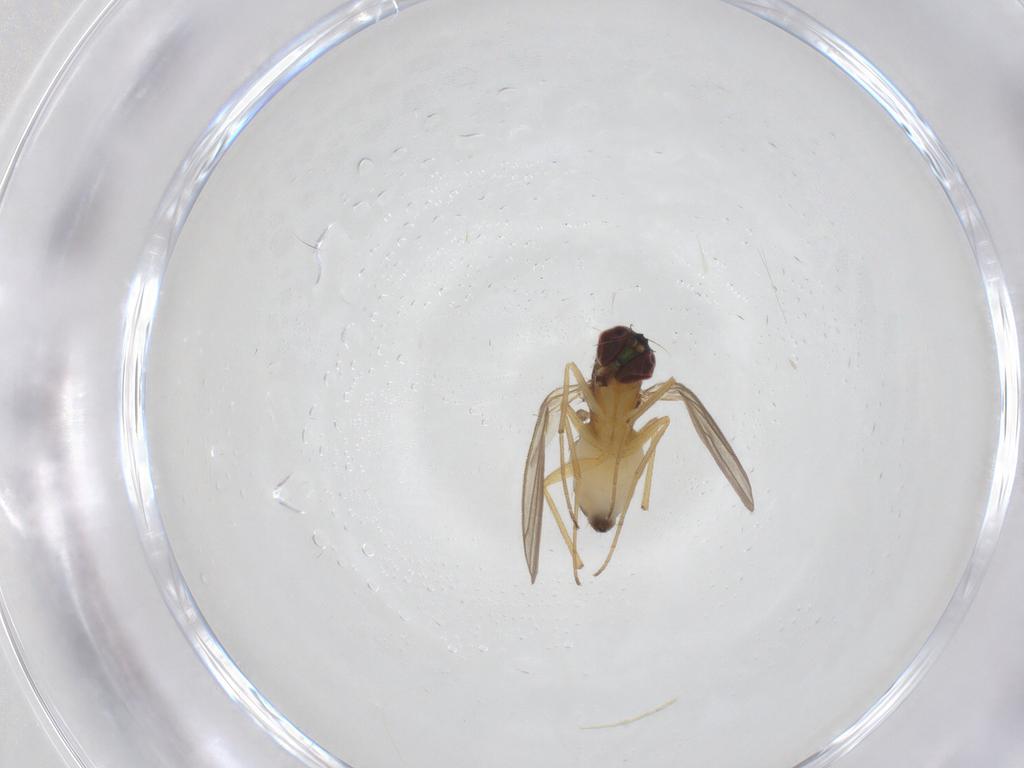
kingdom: Animalia
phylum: Arthropoda
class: Insecta
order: Diptera
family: Dolichopodidae
